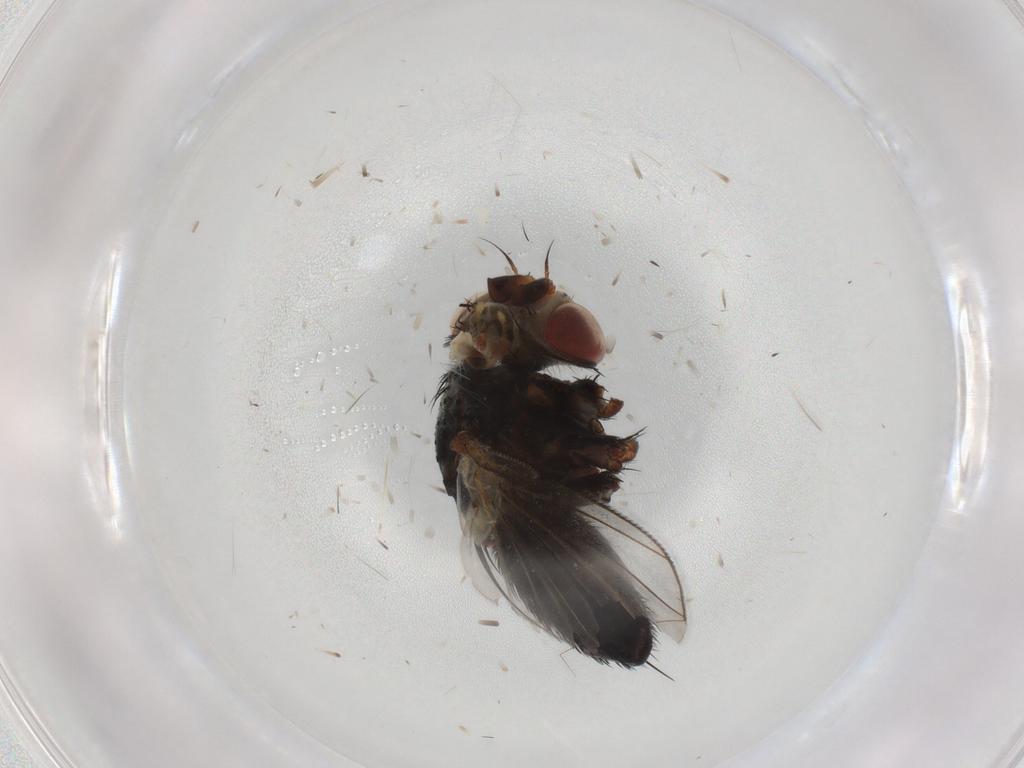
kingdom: Animalia
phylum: Arthropoda
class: Insecta
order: Diptera
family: Tachinidae
